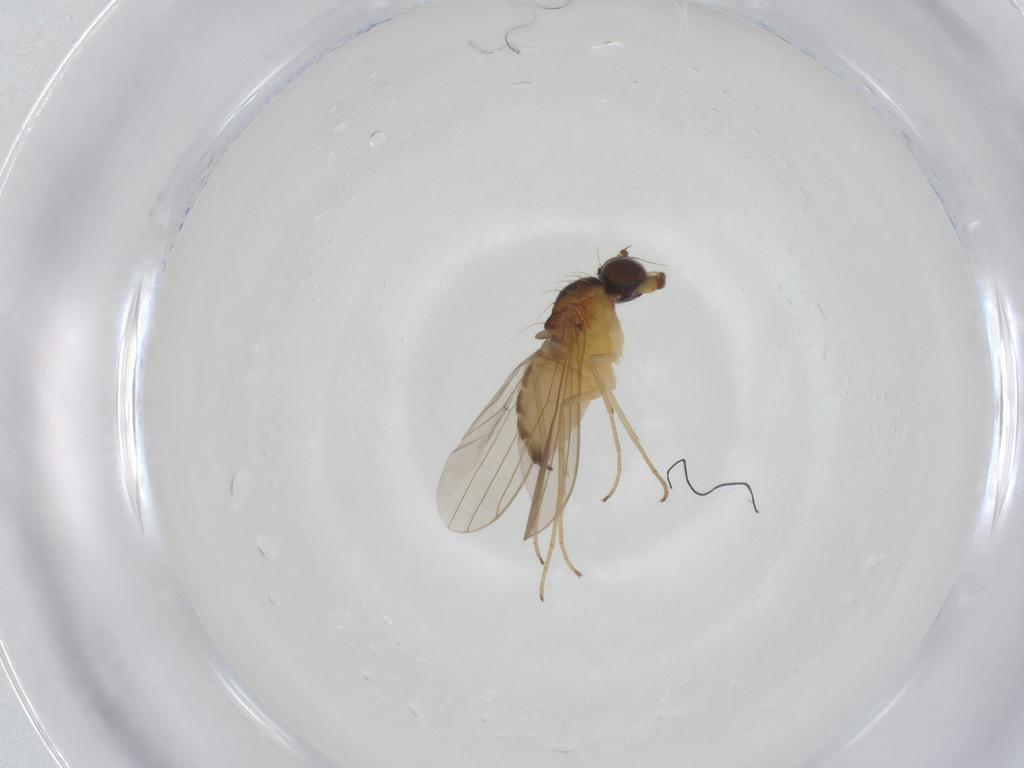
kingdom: Animalia
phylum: Arthropoda
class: Insecta
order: Diptera
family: Dolichopodidae
